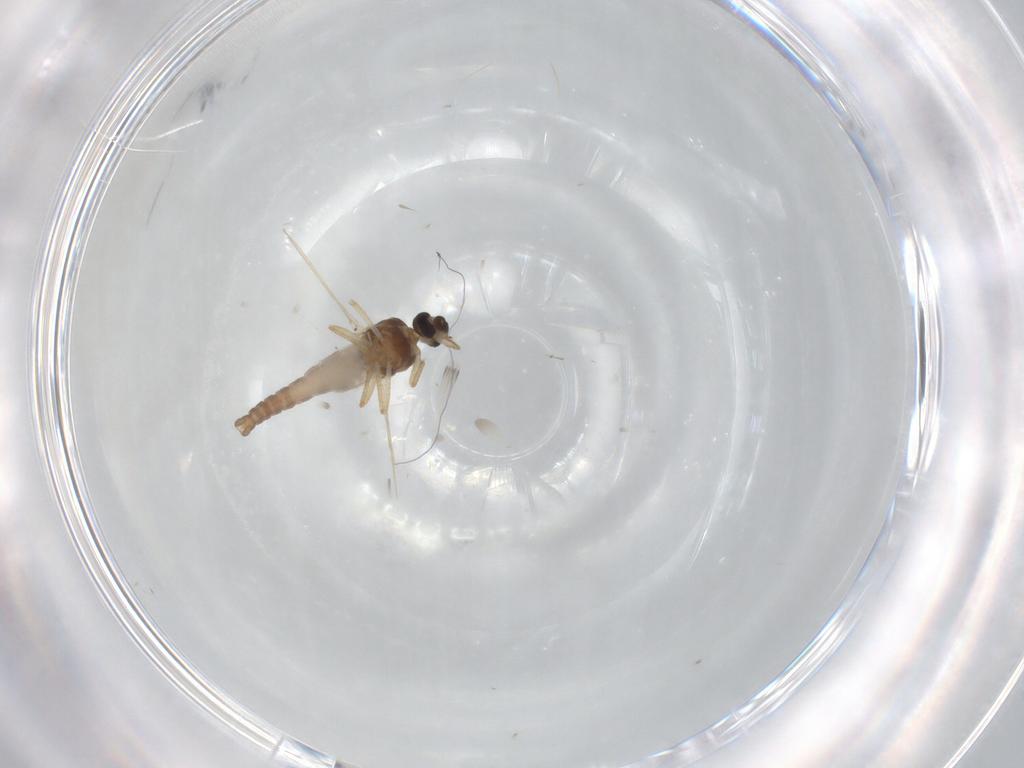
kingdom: Animalia
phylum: Arthropoda
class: Insecta
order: Diptera
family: Ceratopogonidae
